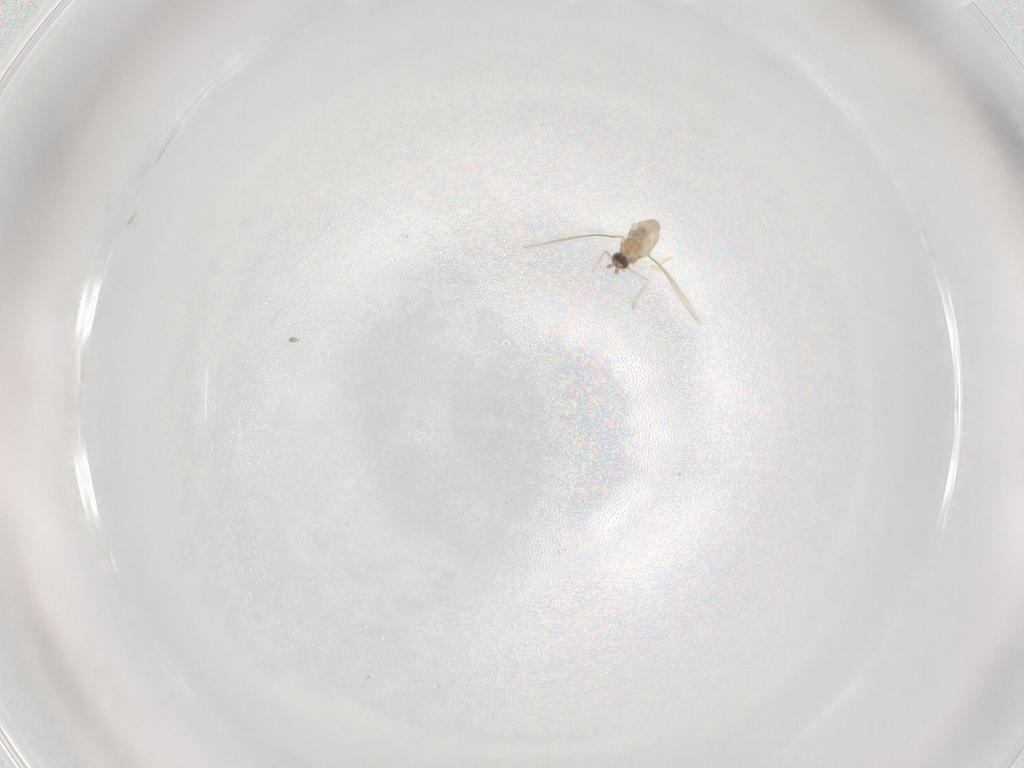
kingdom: Animalia
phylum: Arthropoda
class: Insecta
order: Diptera
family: Cecidomyiidae
